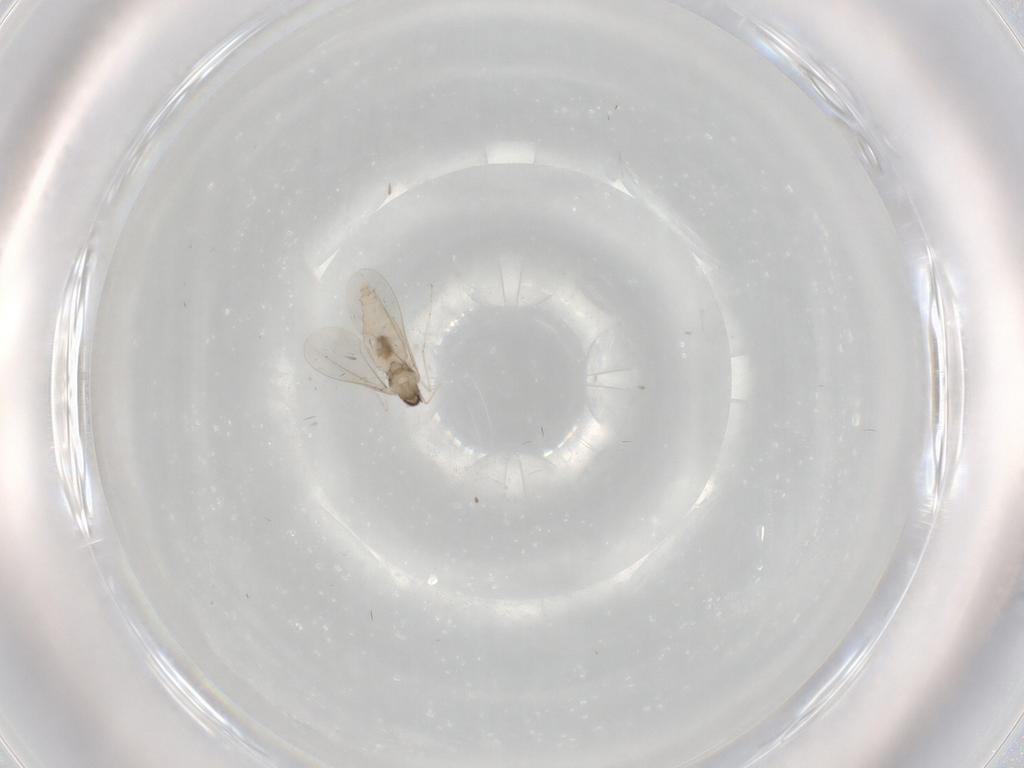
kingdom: Animalia
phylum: Arthropoda
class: Insecta
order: Diptera
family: Cecidomyiidae
